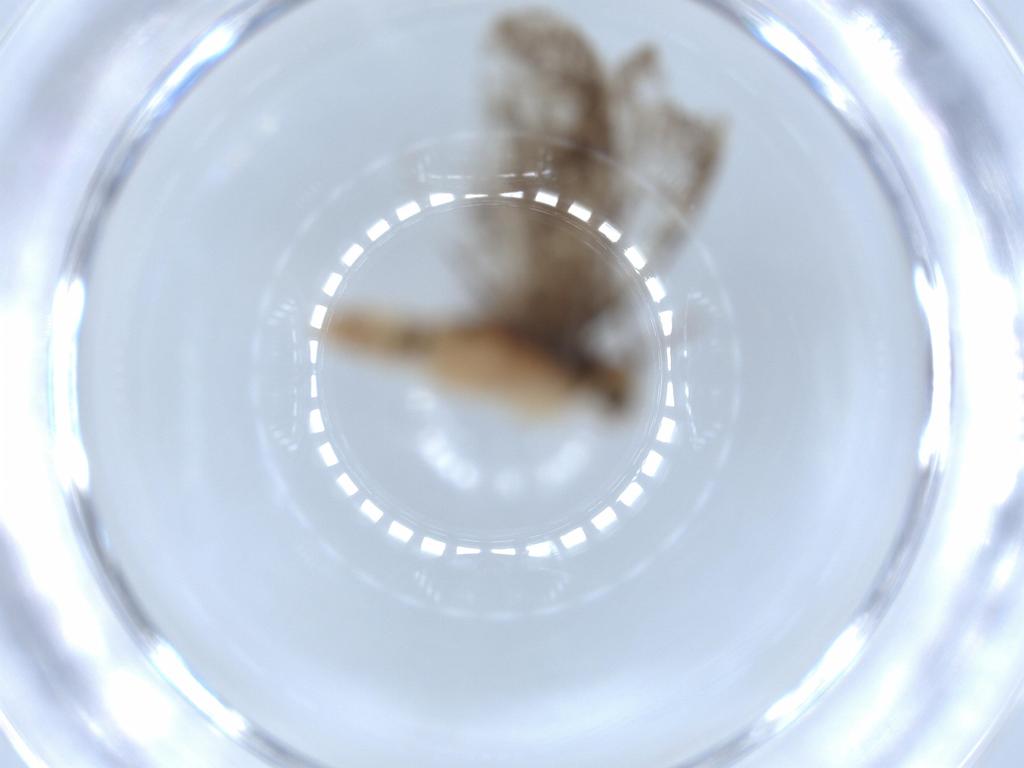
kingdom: Animalia
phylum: Arthropoda
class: Insecta
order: Lepidoptera
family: Dryadaulidae
